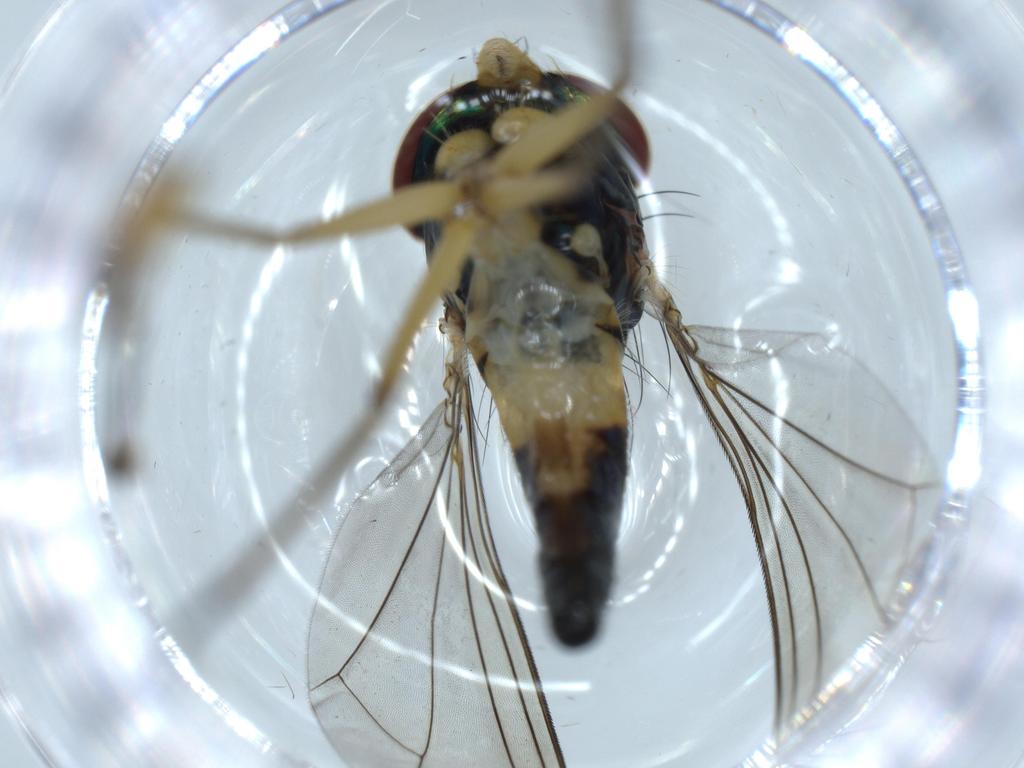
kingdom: Animalia
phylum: Arthropoda
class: Insecta
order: Diptera
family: Dolichopodidae
